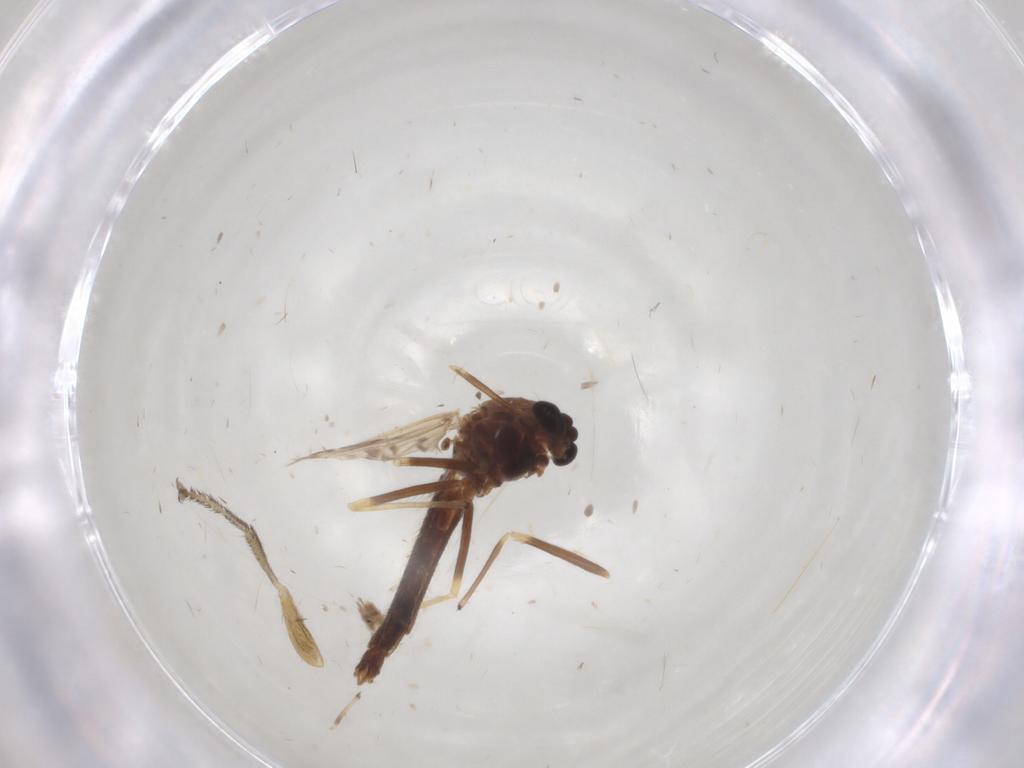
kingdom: Animalia
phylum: Arthropoda
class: Insecta
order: Diptera
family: Chironomidae
